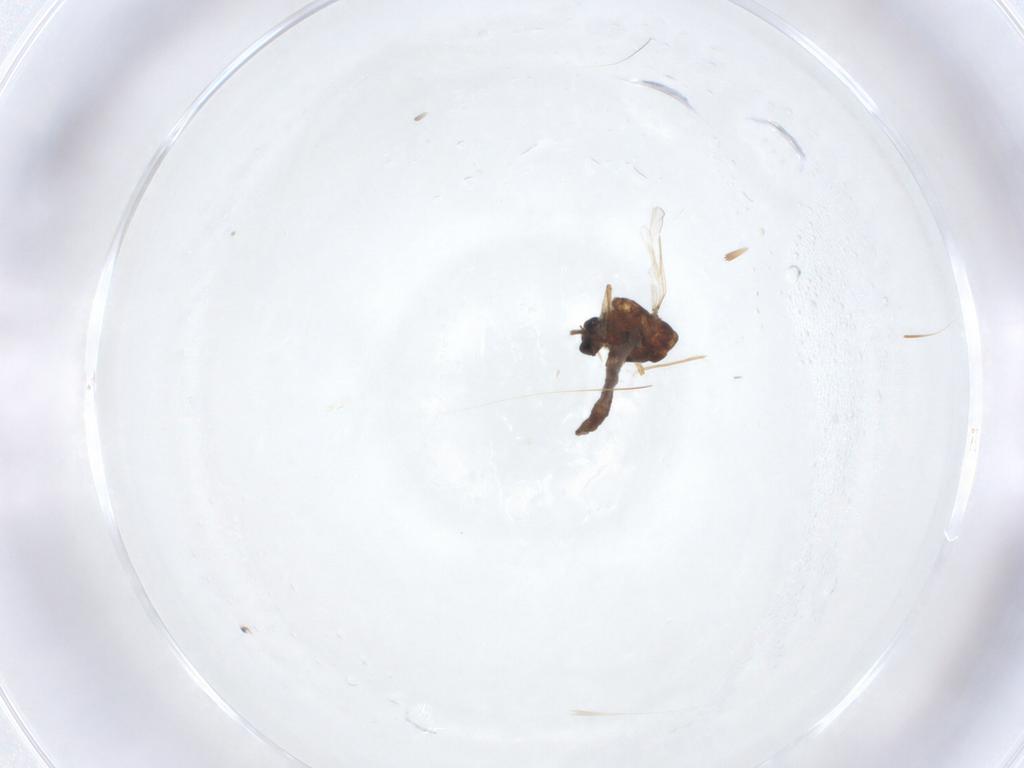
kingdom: Animalia
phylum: Arthropoda
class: Insecta
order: Diptera
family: Ceratopogonidae
